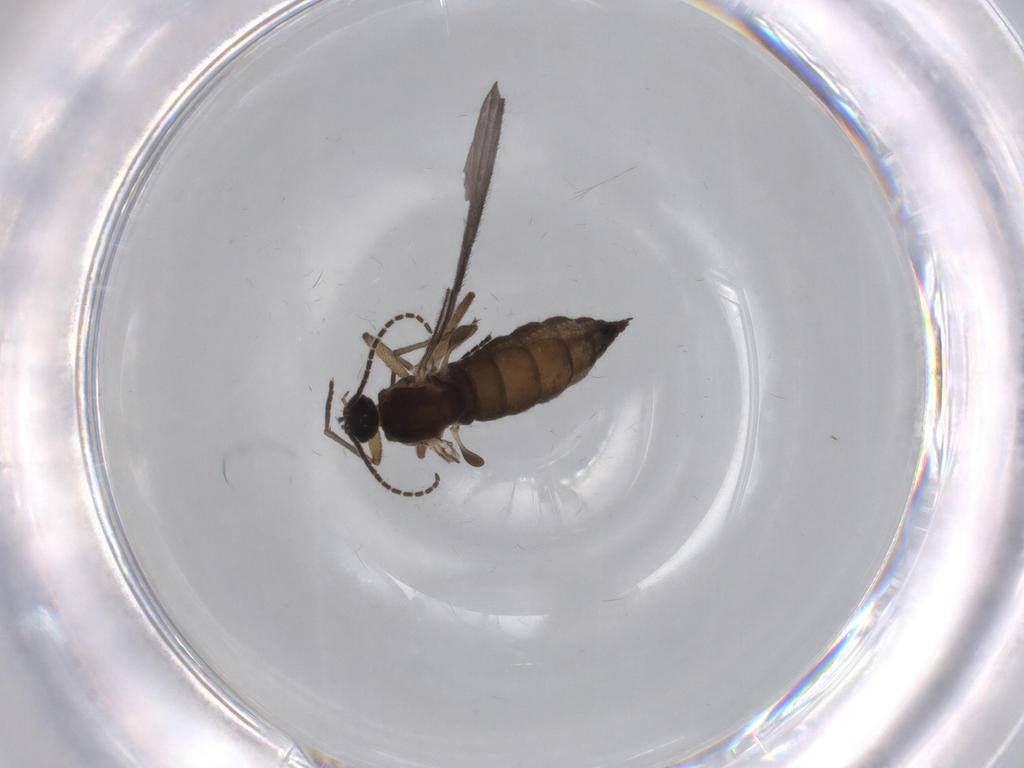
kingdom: Animalia
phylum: Arthropoda
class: Insecta
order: Diptera
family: Sciaridae
